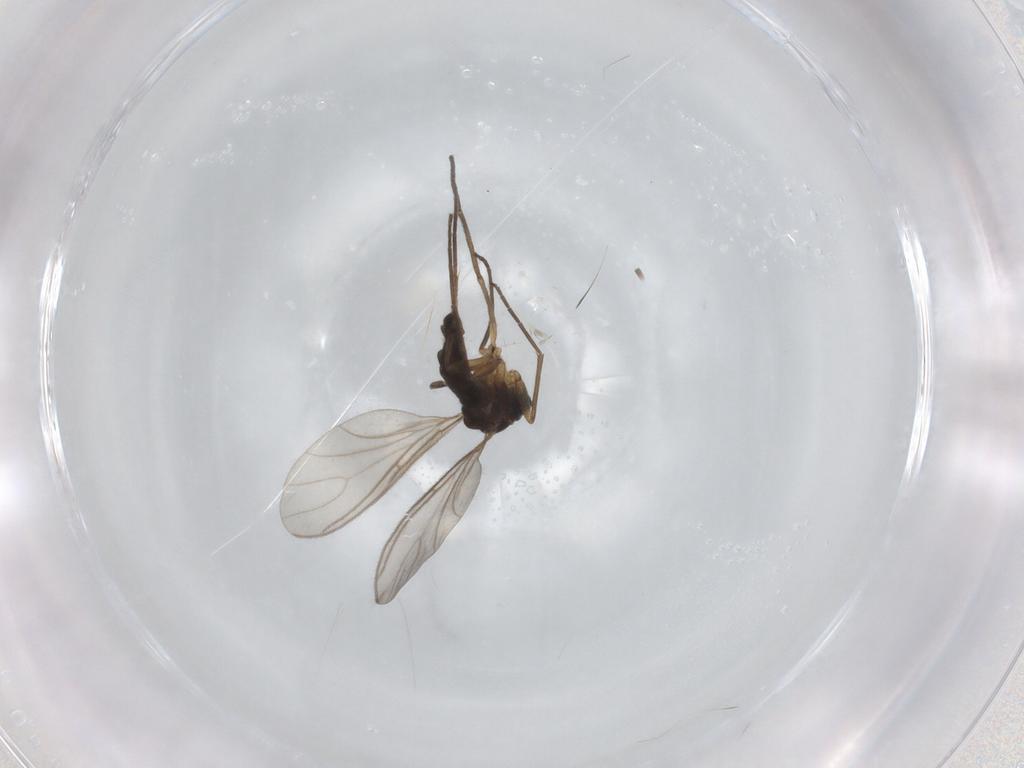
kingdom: Animalia
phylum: Arthropoda
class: Insecta
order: Diptera
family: Sciaridae
